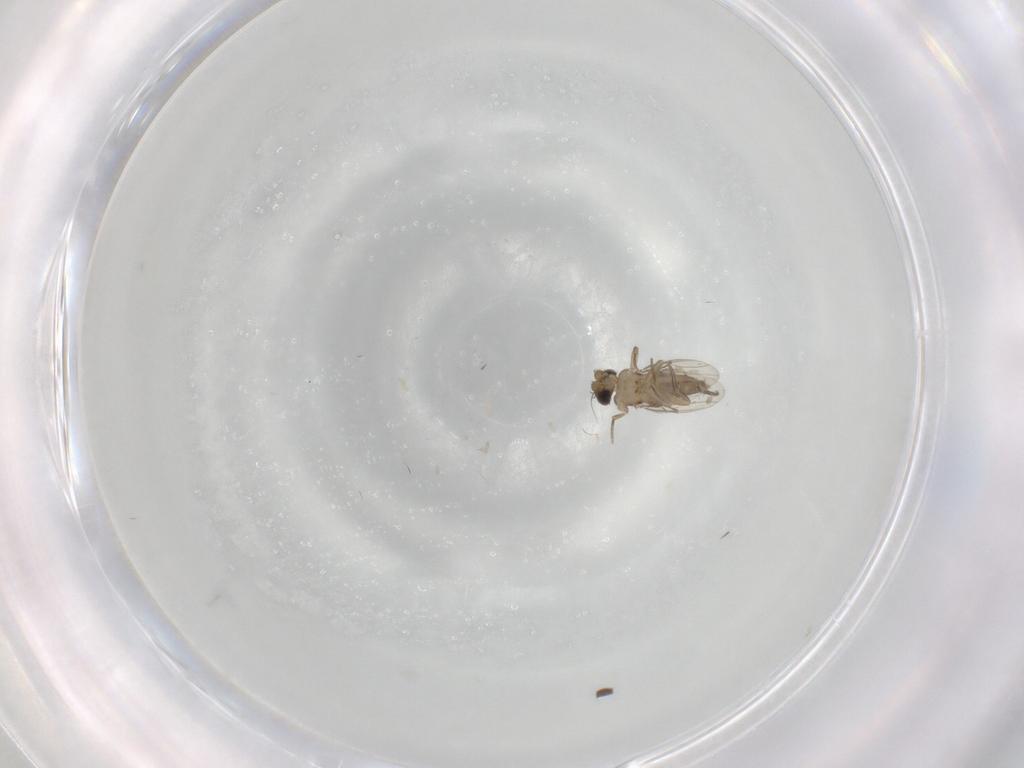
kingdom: Animalia
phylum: Arthropoda
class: Insecta
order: Diptera
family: Phoridae
